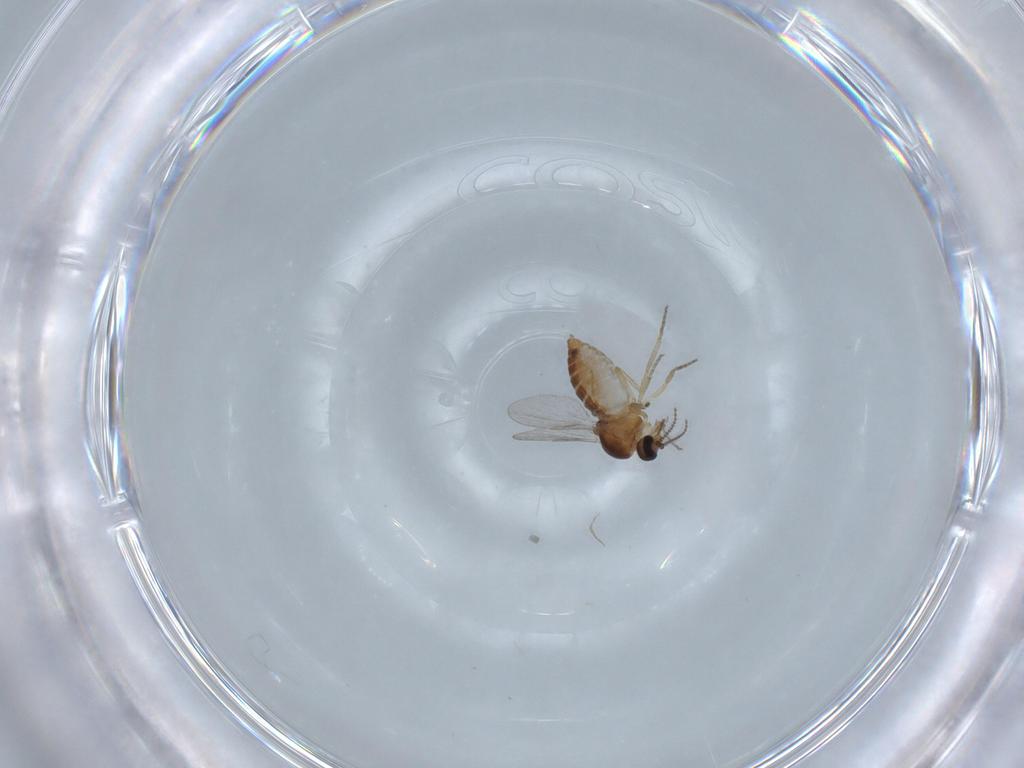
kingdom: Animalia
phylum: Arthropoda
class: Insecta
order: Diptera
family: Ceratopogonidae
